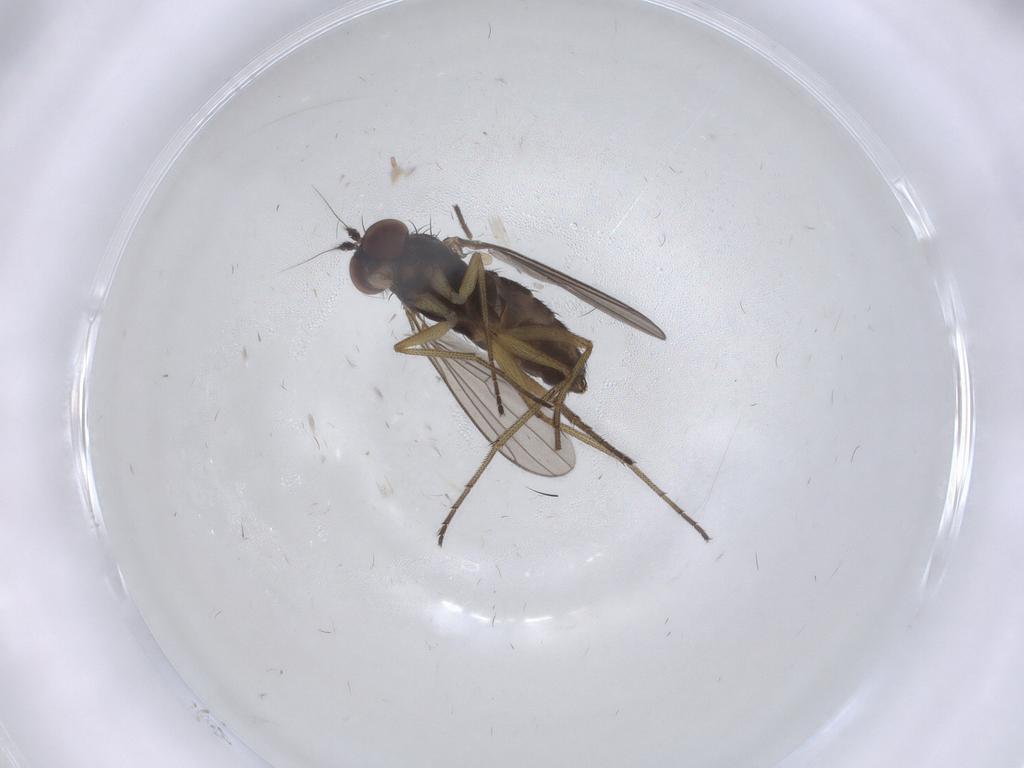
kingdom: Animalia
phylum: Arthropoda
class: Insecta
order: Diptera
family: Dolichopodidae
